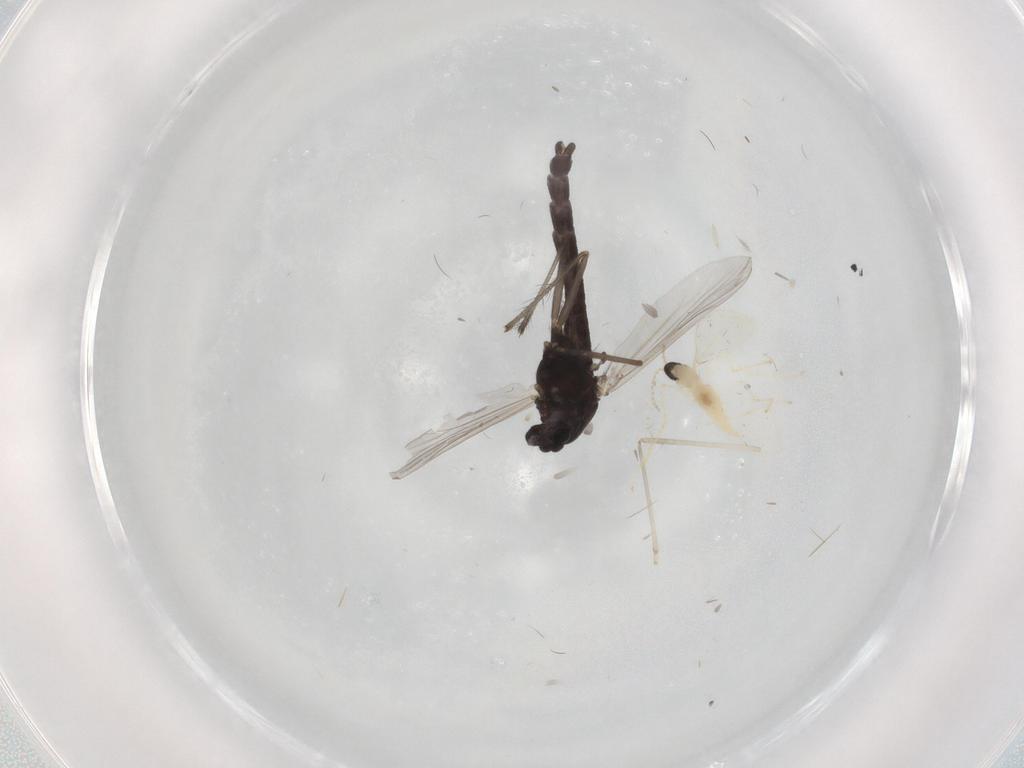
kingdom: Animalia
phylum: Arthropoda
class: Insecta
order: Diptera
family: Chironomidae
